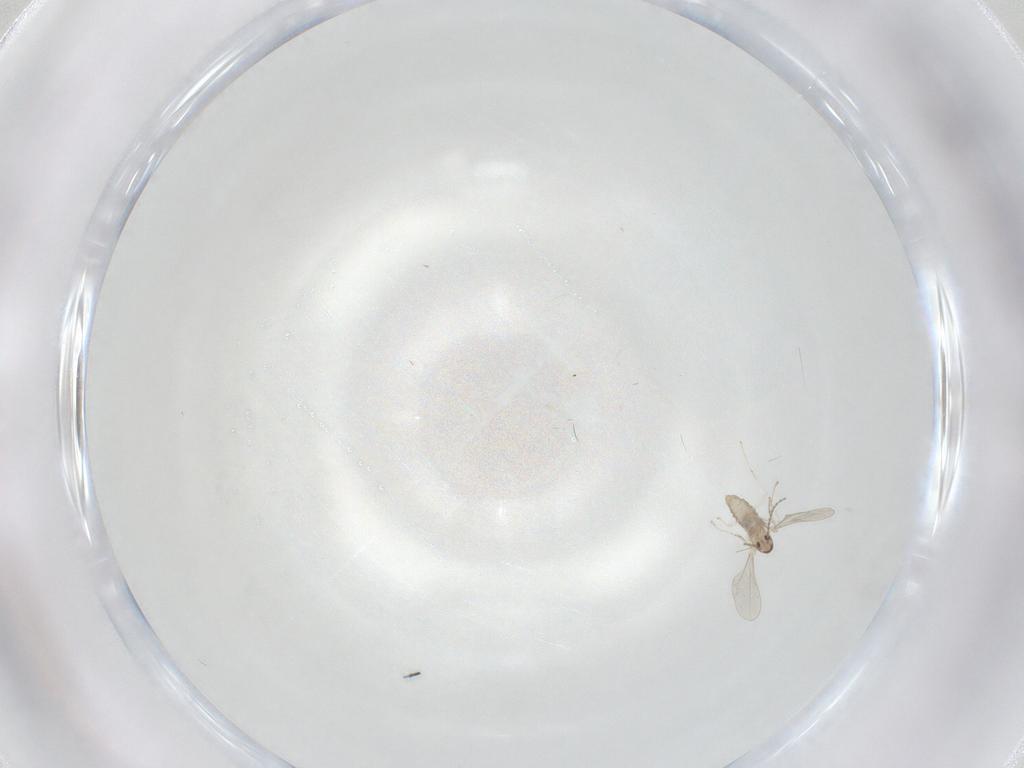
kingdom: Animalia
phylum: Arthropoda
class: Insecta
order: Diptera
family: Cecidomyiidae
